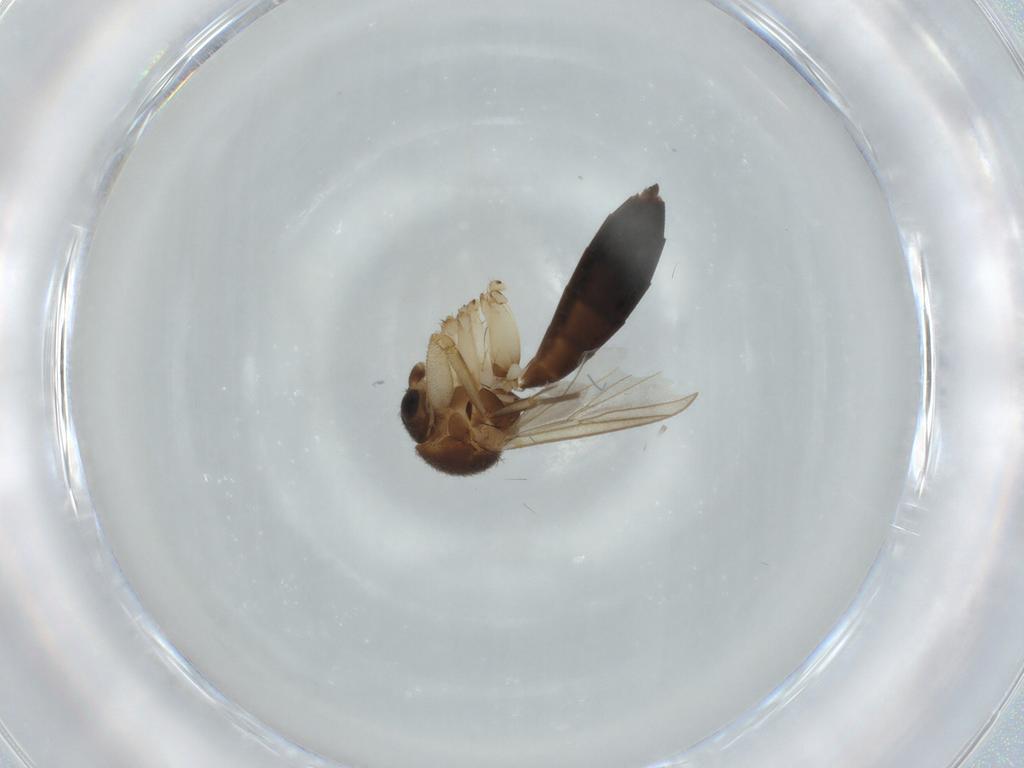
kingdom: Animalia
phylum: Arthropoda
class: Insecta
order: Diptera
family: Mycetophilidae
